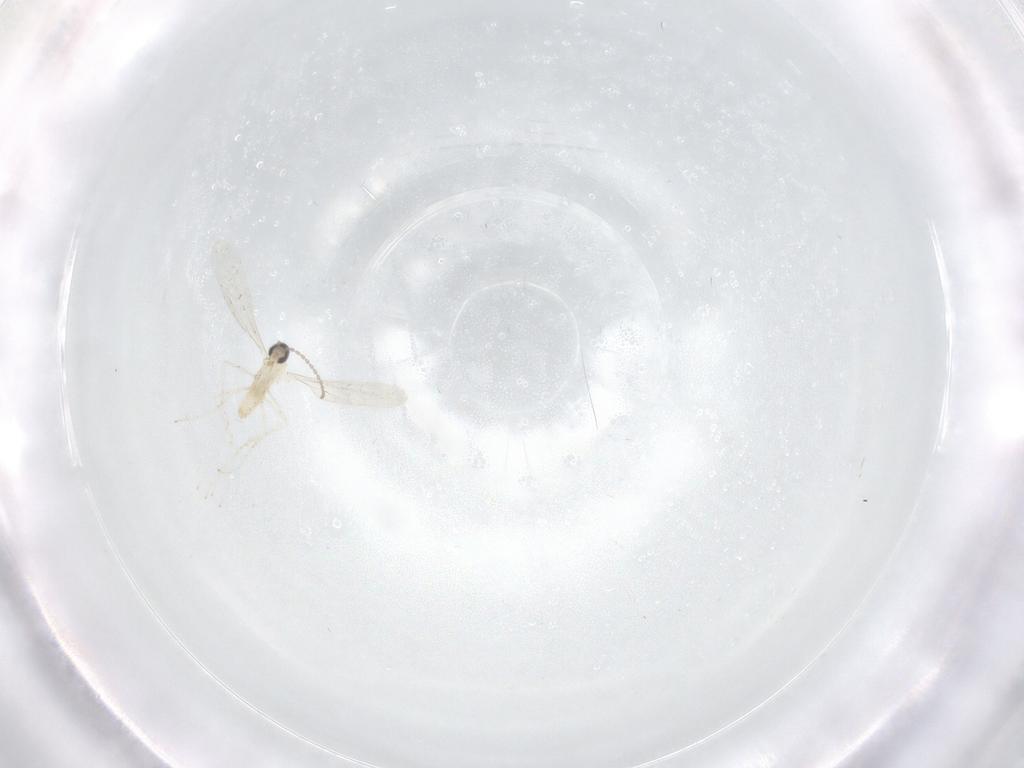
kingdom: Animalia
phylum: Arthropoda
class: Insecta
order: Diptera
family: Cecidomyiidae
